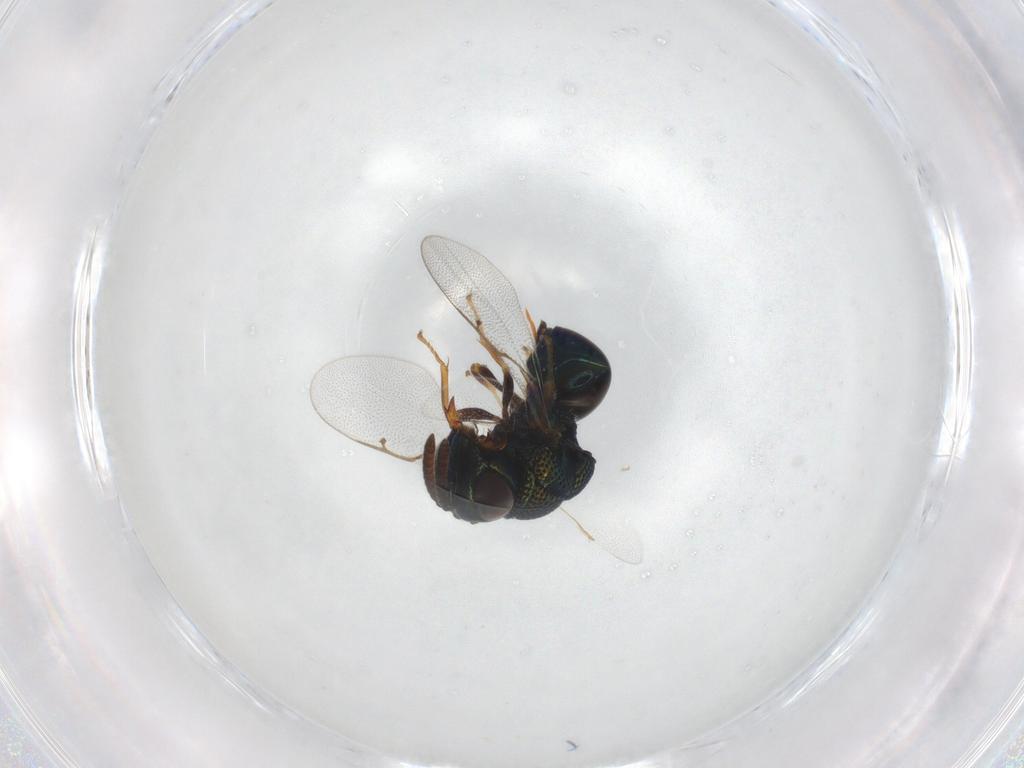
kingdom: Animalia
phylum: Arthropoda
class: Insecta
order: Hymenoptera
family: Perilampidae
